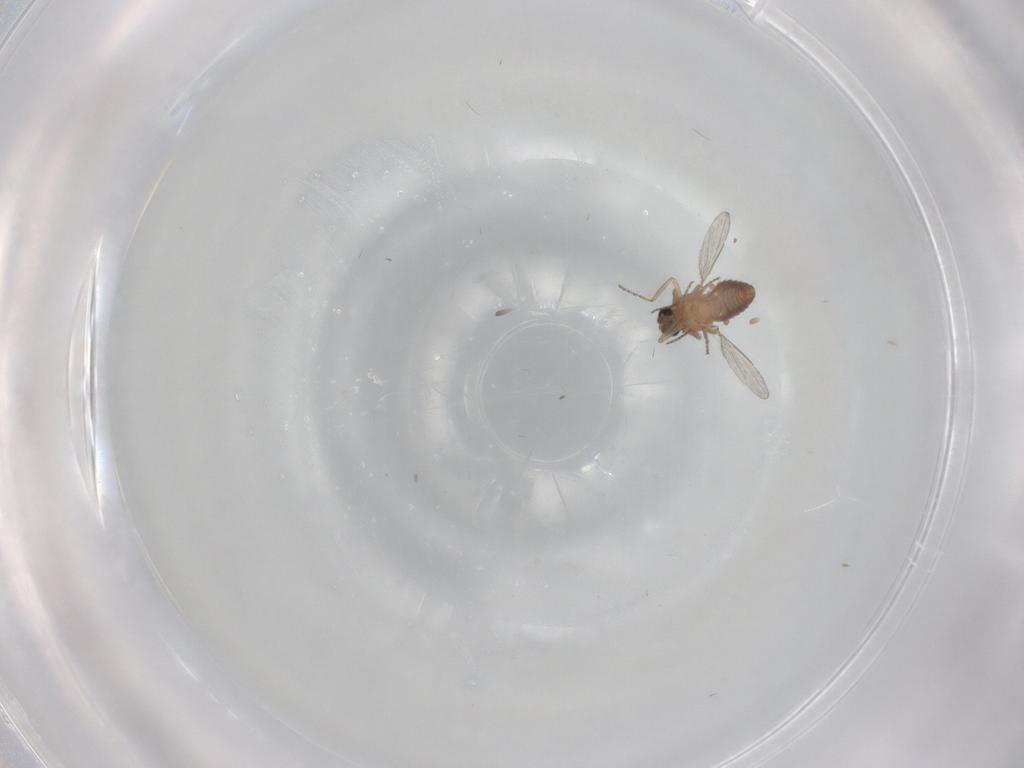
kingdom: Animalia
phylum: Arthropoda
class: Insecta
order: Diptera
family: Ceratopogonidae
